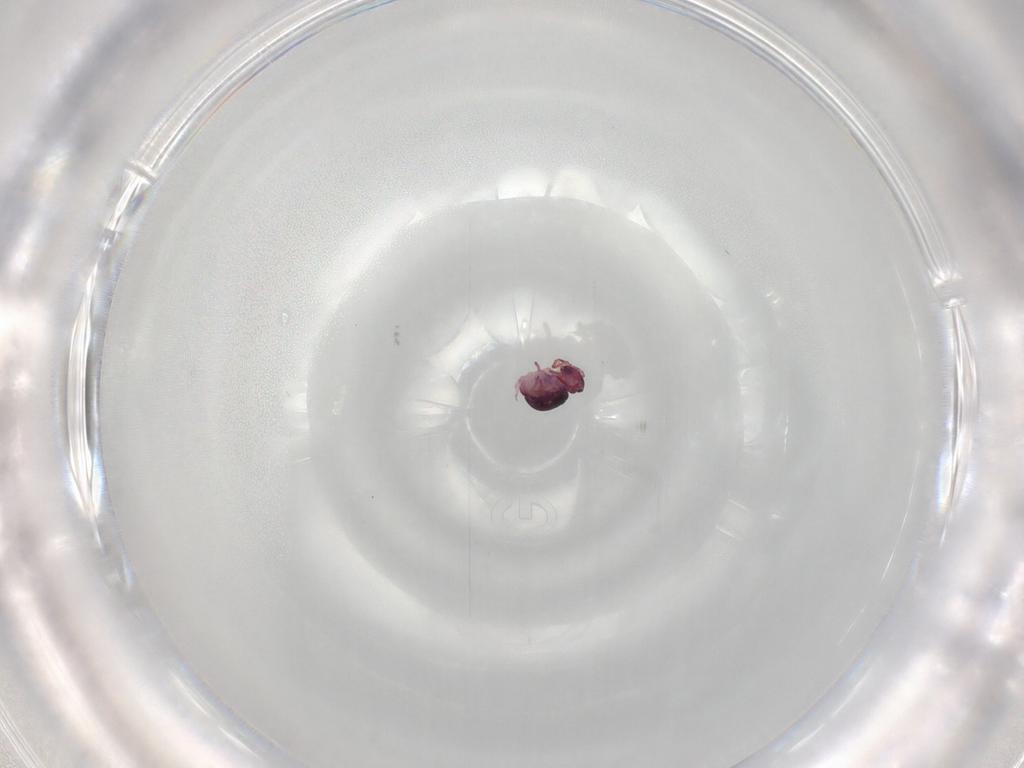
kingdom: Animalia
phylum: Arthropoda
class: Collembola
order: Symphypleona
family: Sminthurididae
